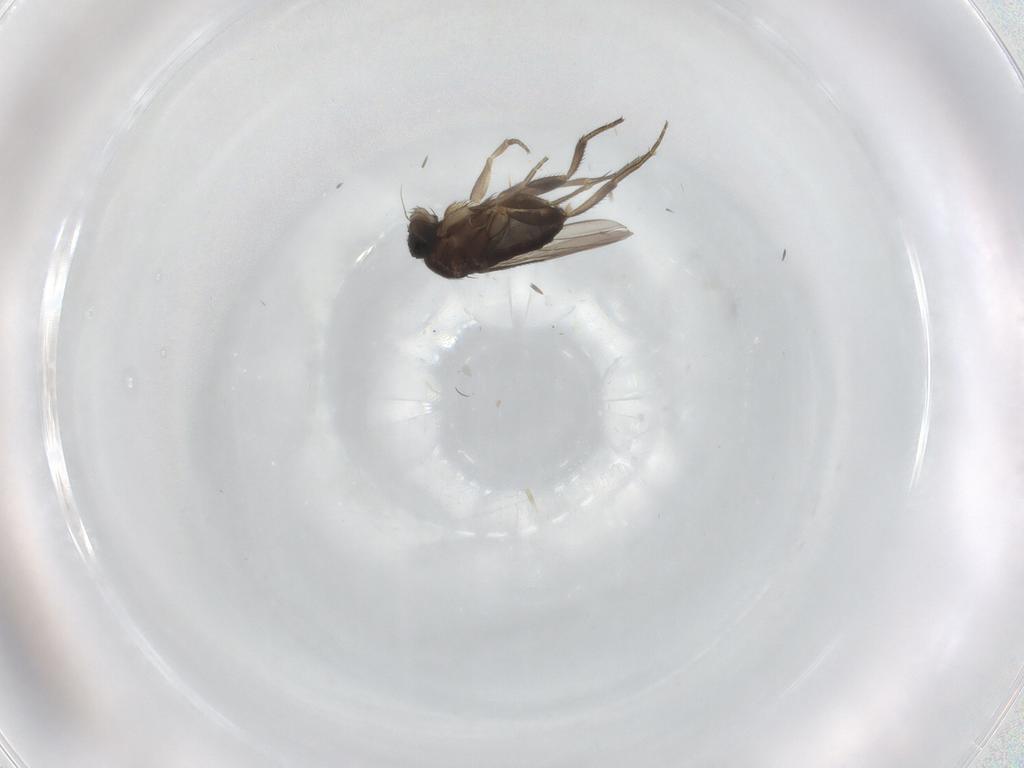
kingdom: Animalia
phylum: Arthropoda
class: Insecta
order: Diptera
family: Phoridae
